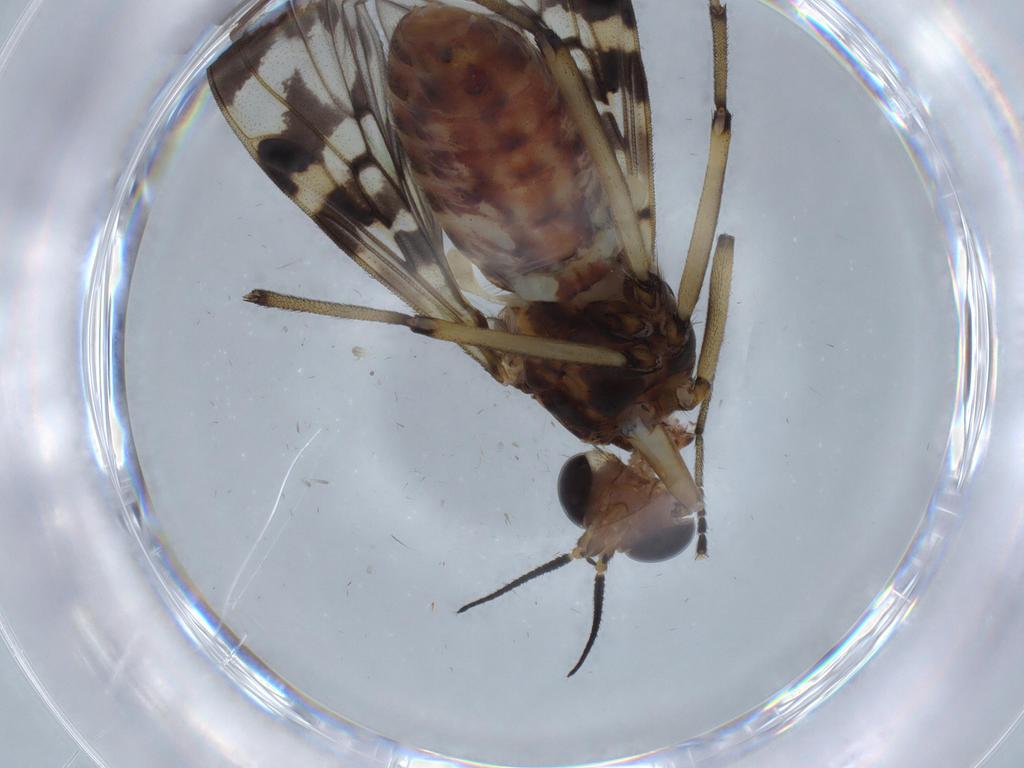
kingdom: Animalia
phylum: Arthropoda
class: Insecta
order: Diptera
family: Anisopodidae
